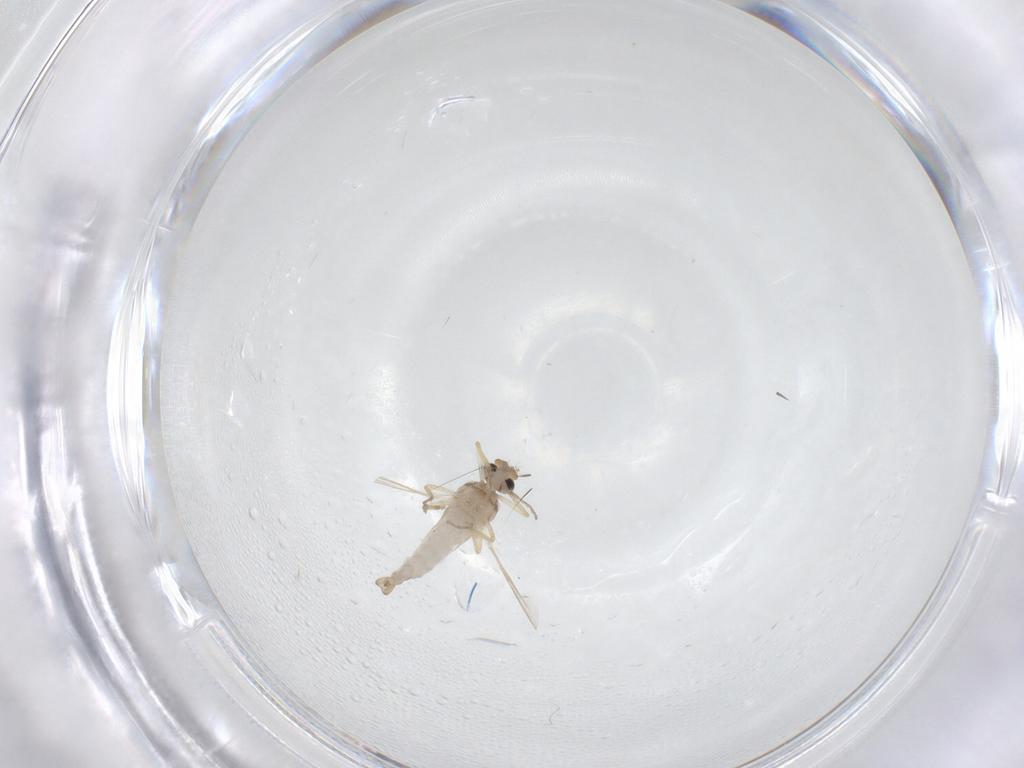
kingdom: Animalia
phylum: Arthropoda
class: Insecta
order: Diptera
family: Ceratopogonidae
